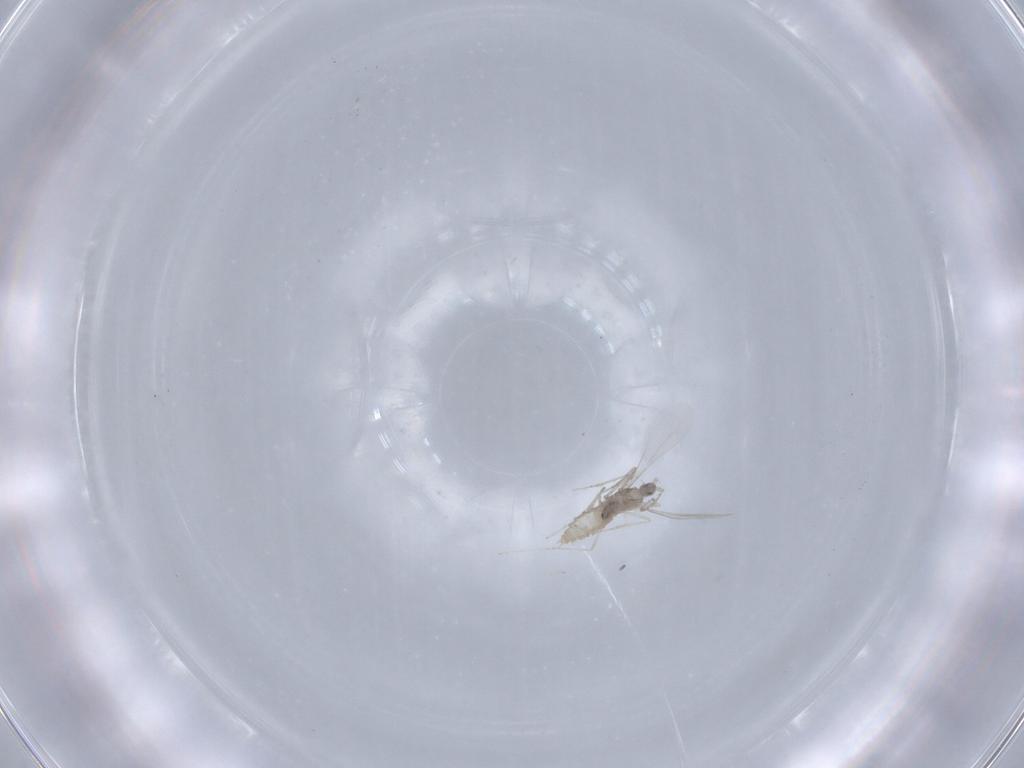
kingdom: Animalia
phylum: Arthropoda
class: Insecta
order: Diptera
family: Cecidomyiidae
